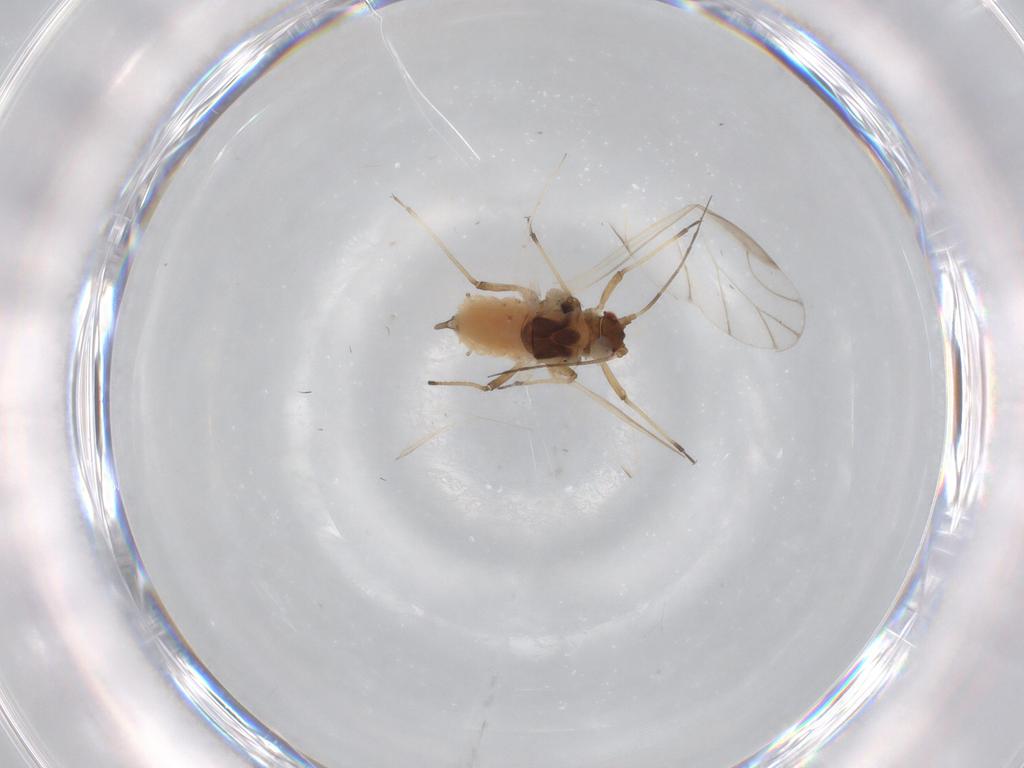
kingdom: Animalia
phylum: Arthropoda
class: Insecta
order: Hemiptera
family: Aphididae
